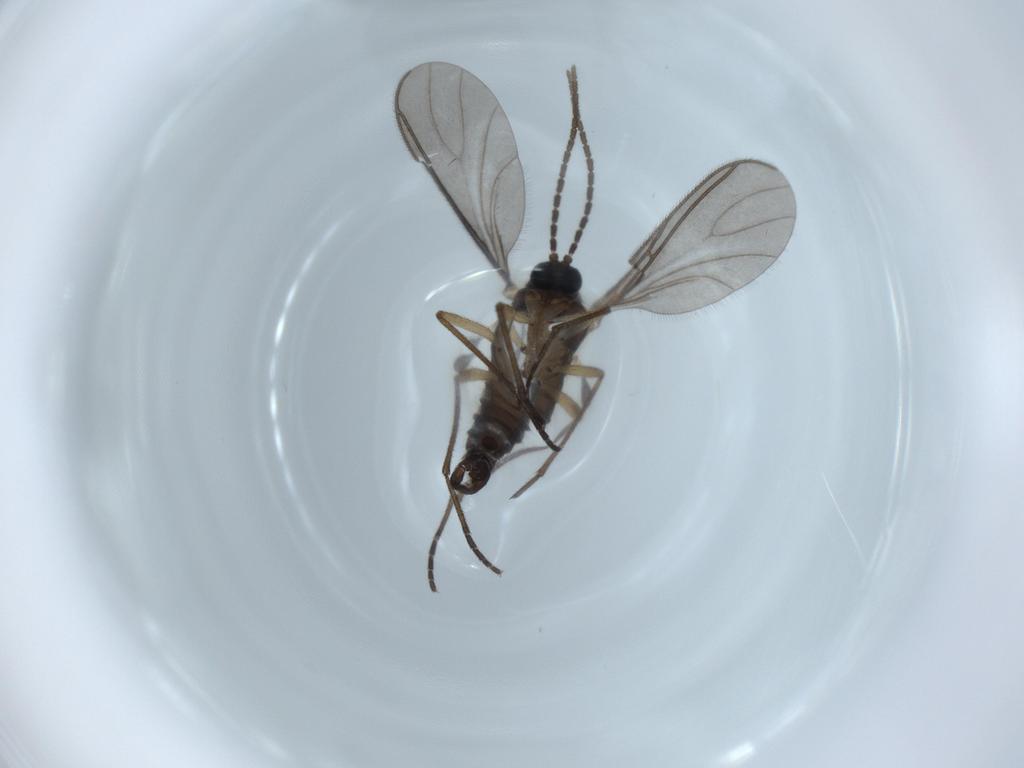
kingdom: Animalia
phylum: Arthropoda
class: Insecta
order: Diptera
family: Sciaridae
